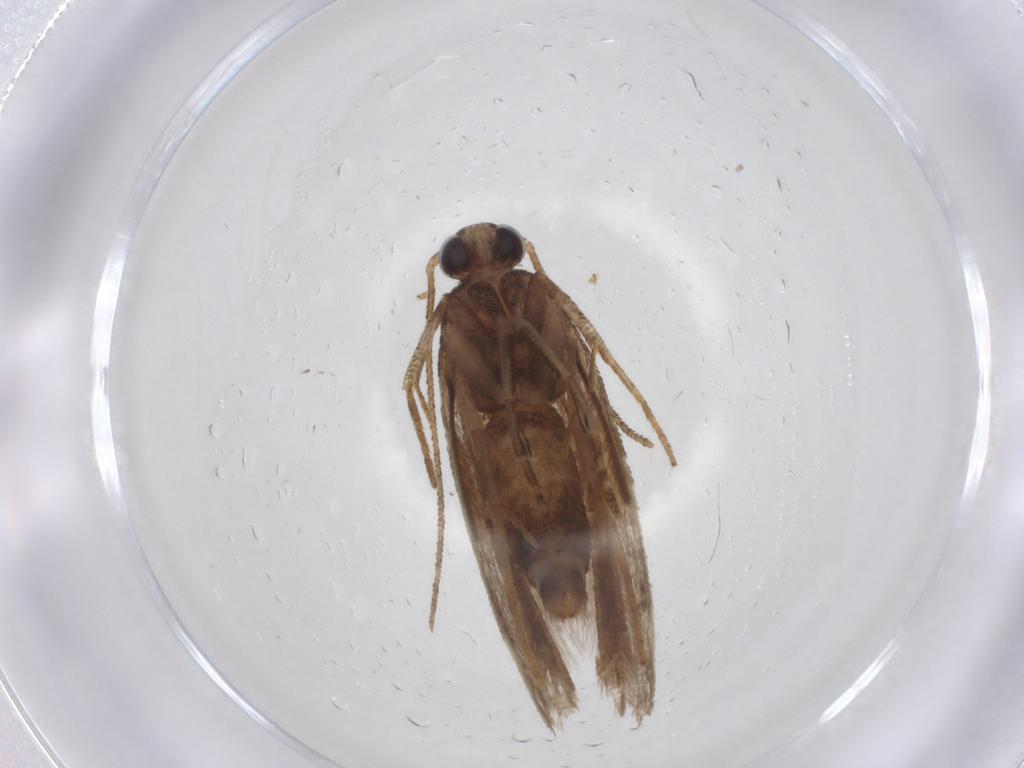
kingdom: Animalia
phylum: Arthropoda
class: Insecta
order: Lepidoptera
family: Gelechiidae
